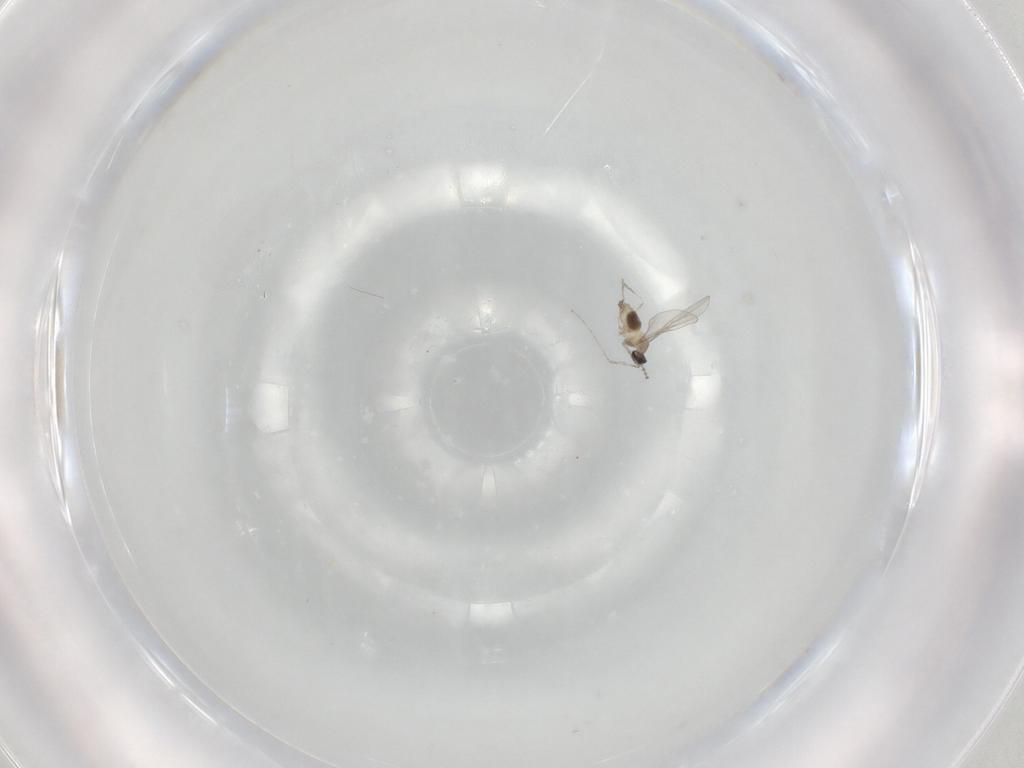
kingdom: Animalia
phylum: Arthropoda
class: Insecta
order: Diptera
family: Cecidomyiidae
